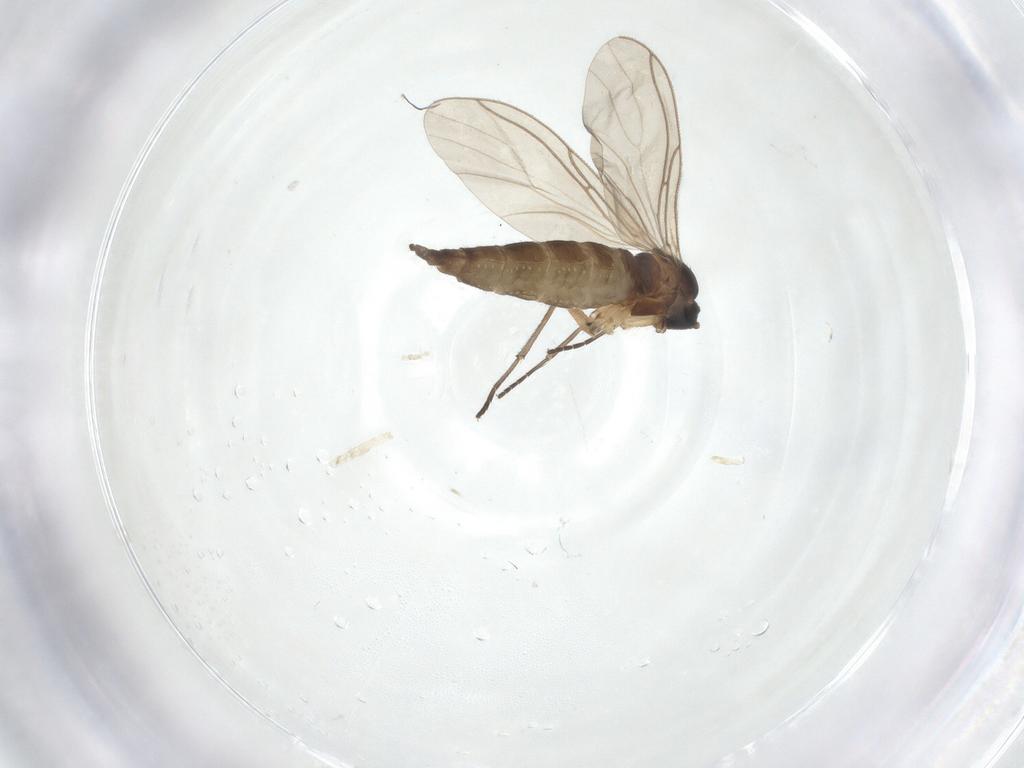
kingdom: Animalia
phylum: Arthropoda
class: Insecta
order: Diptera
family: Sciaridae
